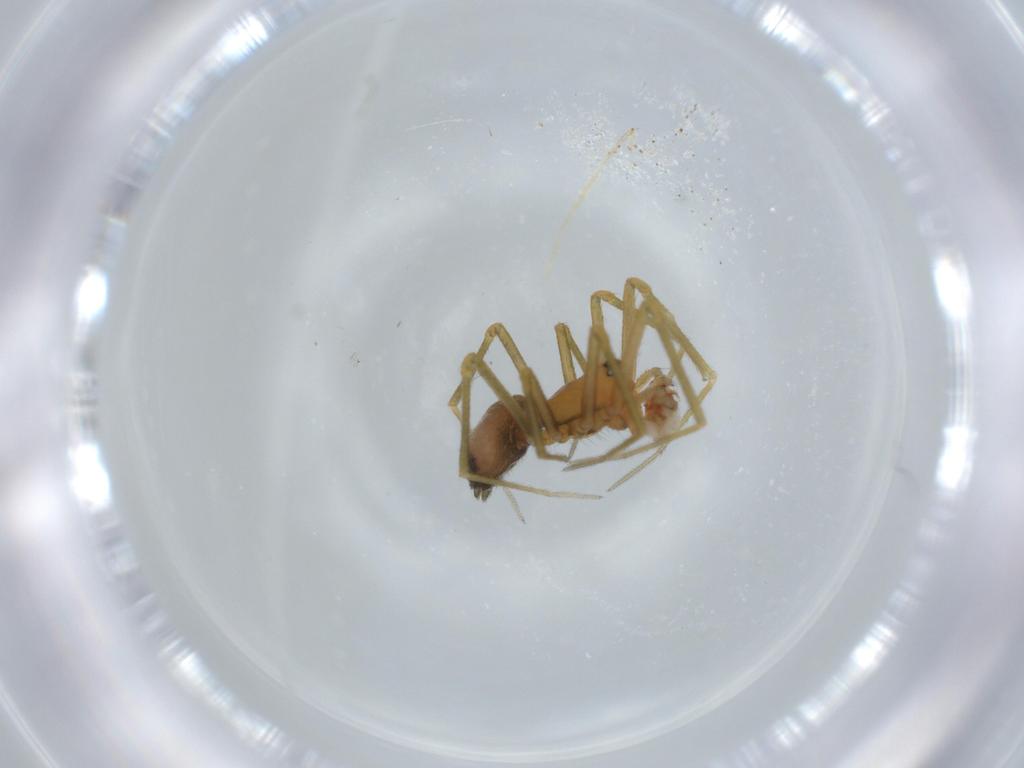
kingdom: Animalia
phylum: Arthropoda
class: Arachnida
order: Araneae
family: Linyphiidae
